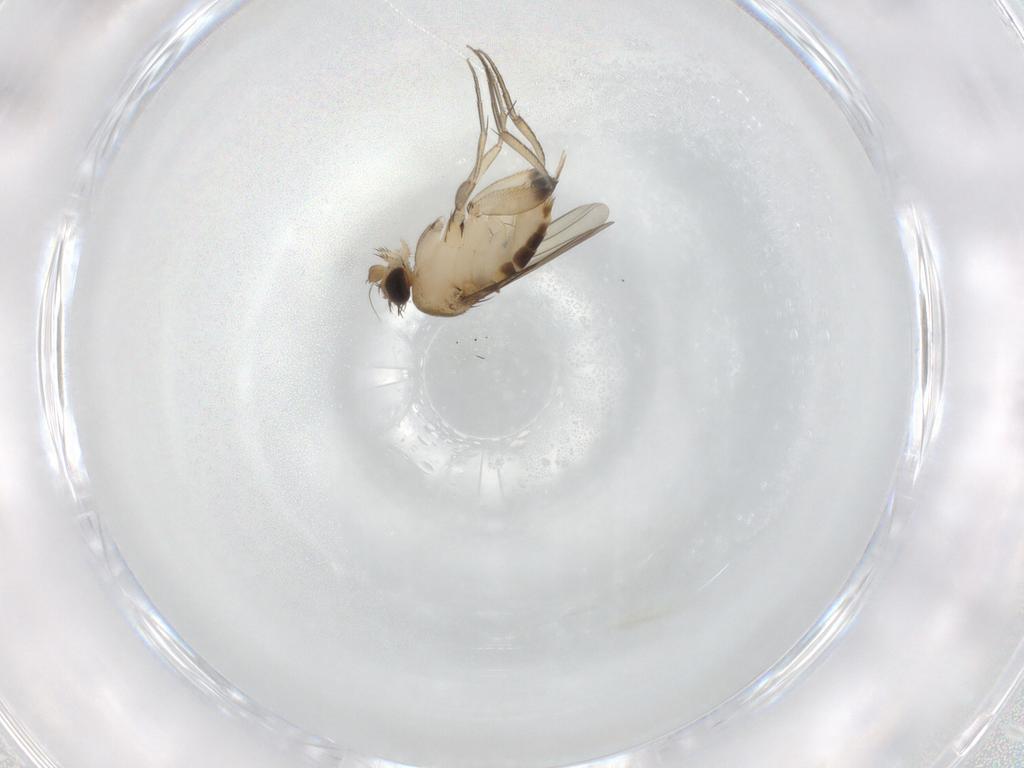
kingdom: Animalia
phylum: Arthropoda
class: Insecta
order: Diptera
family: Phoridae
